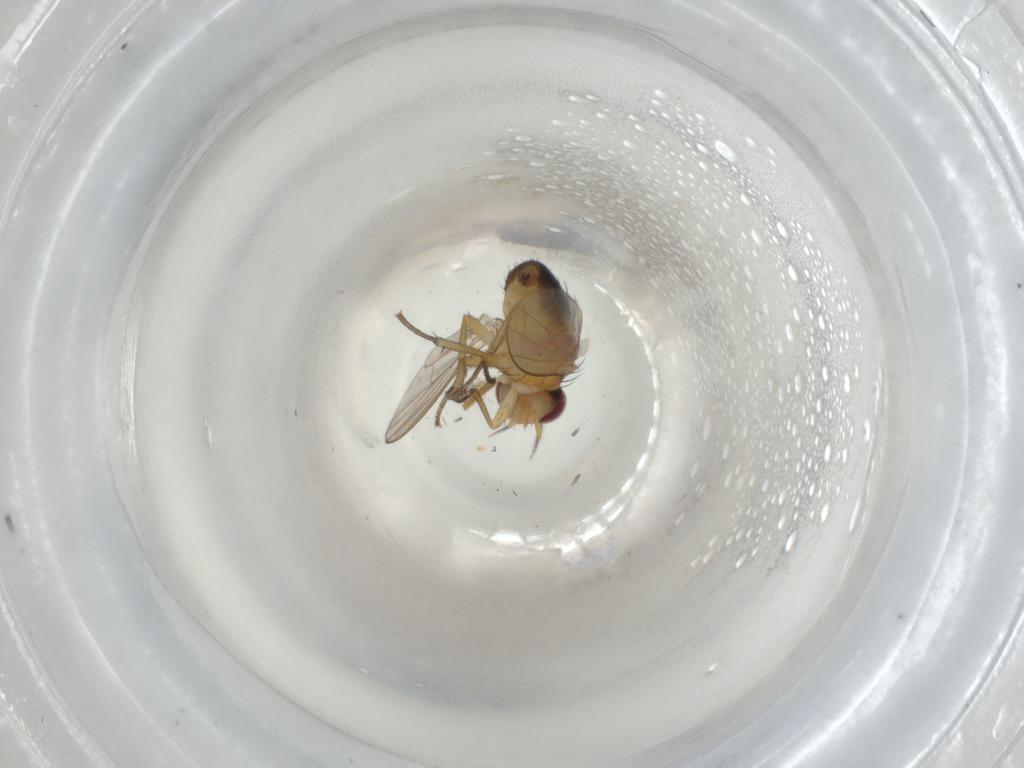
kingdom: Animalia
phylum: Arthropoda
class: Insecta
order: Diptera
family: Lauxaniidae
